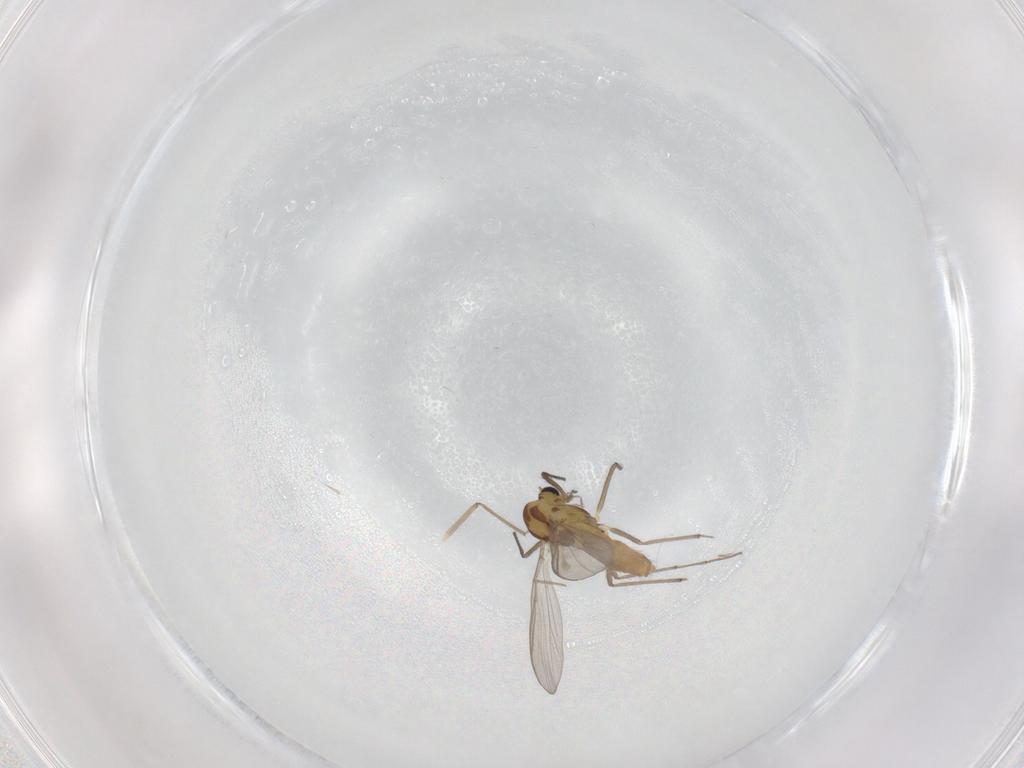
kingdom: Animalia
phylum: Arthropoda
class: Insecta
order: Diptera
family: Chironomidae
